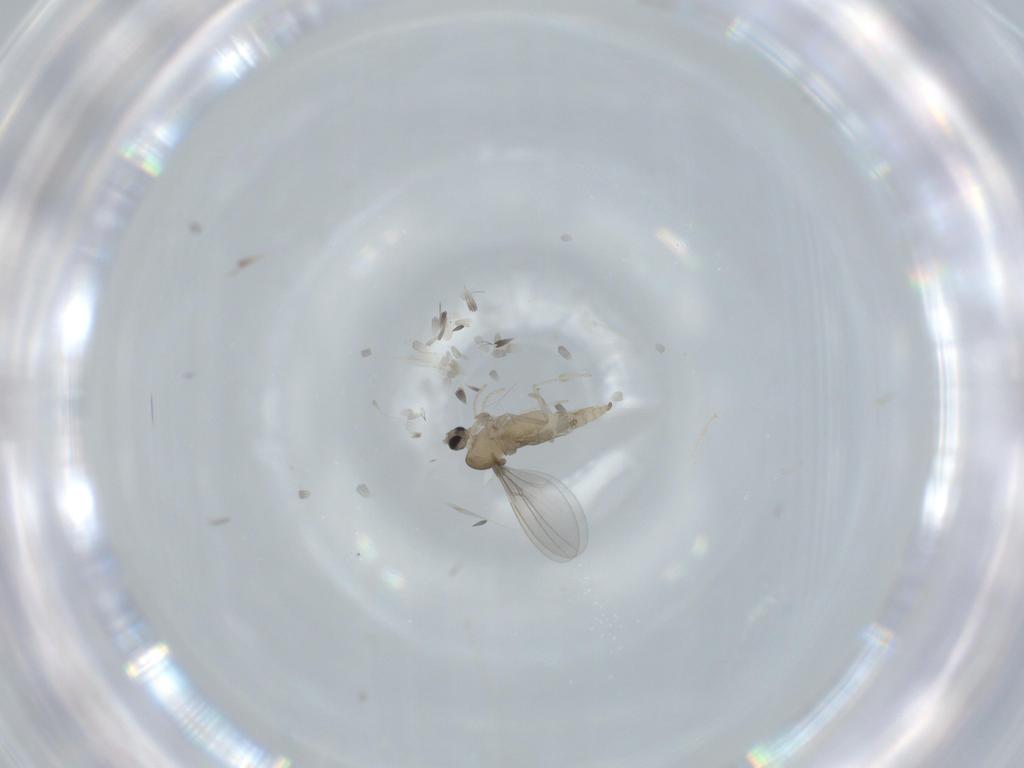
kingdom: Animalia
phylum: Arthropoda
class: Insecta
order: Diptera
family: Cecidomyiidae
